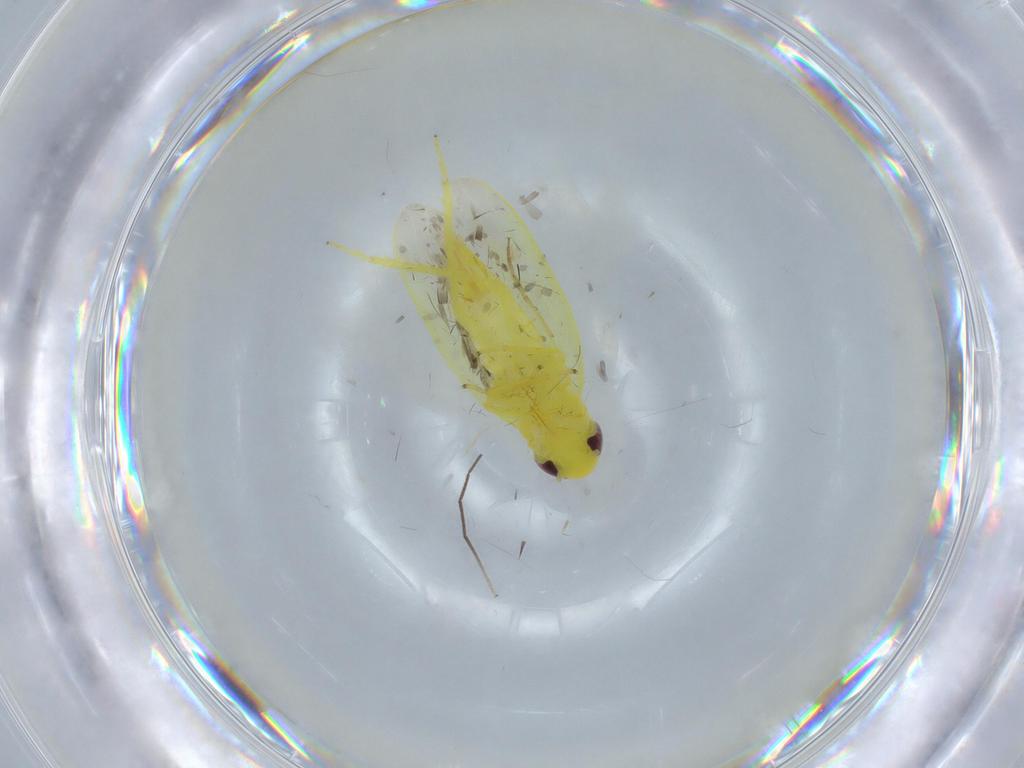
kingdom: Animalia
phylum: Arthropoda
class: Insecta
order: Hemiptera
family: Cicadellidae
